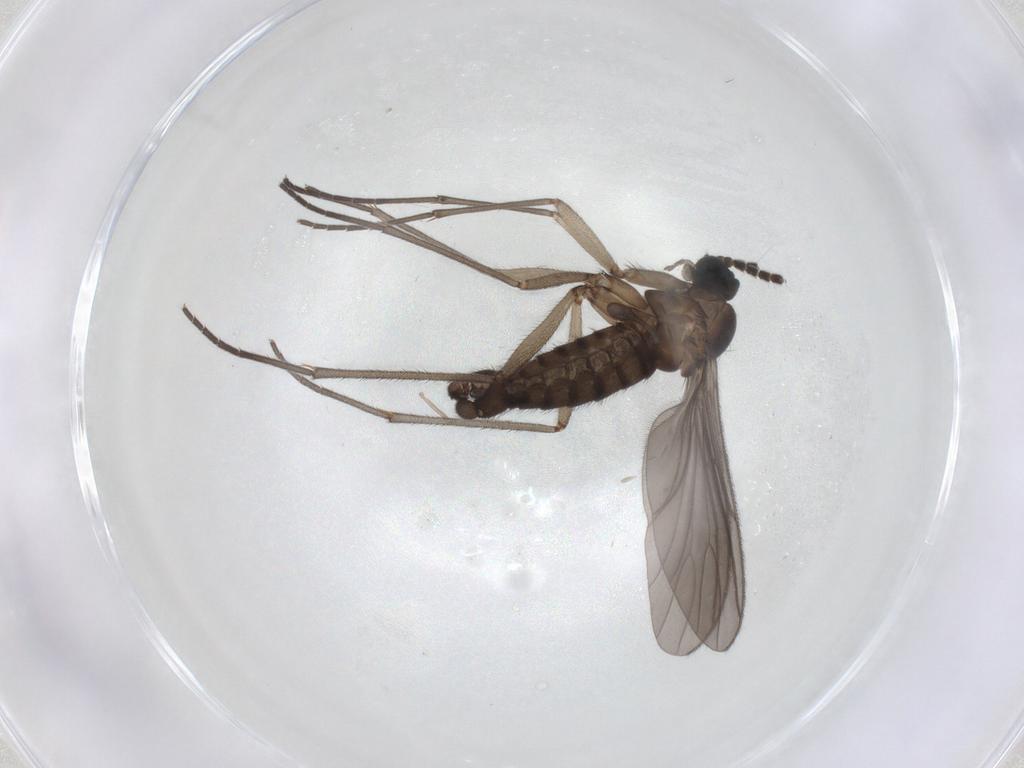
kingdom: Animalia
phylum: Arthropoda
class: Insecta
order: Diptera
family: Sciaridae
